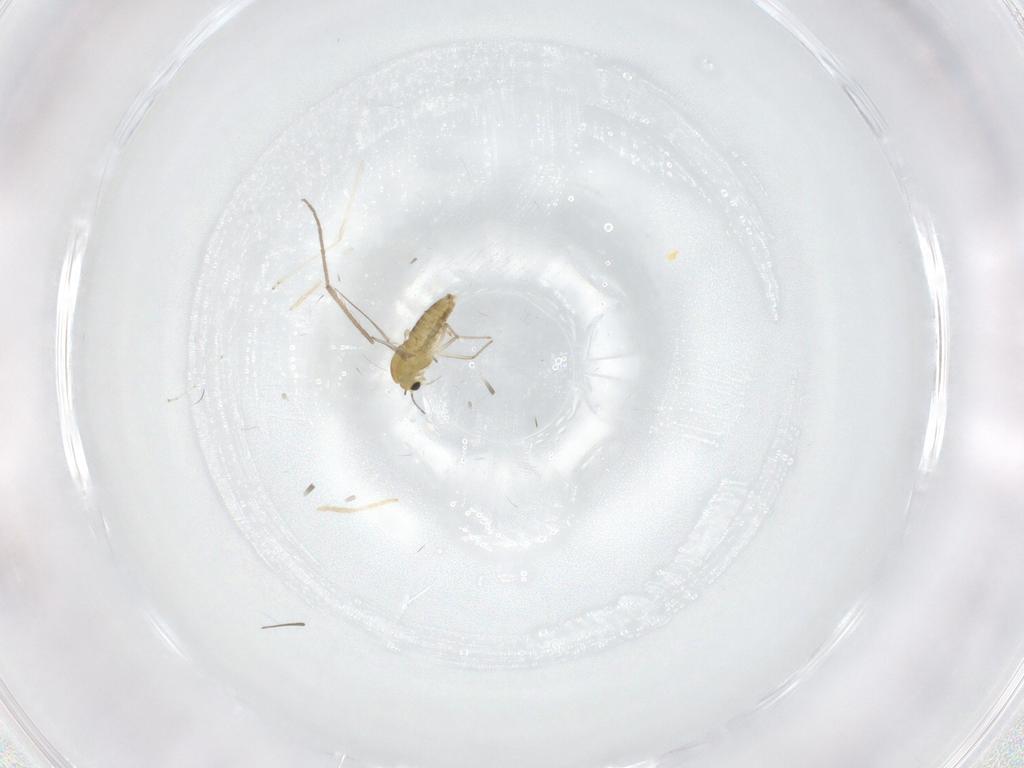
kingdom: Animalia
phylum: Arthropoda
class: Insecta
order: Diptera
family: Chironomidae
